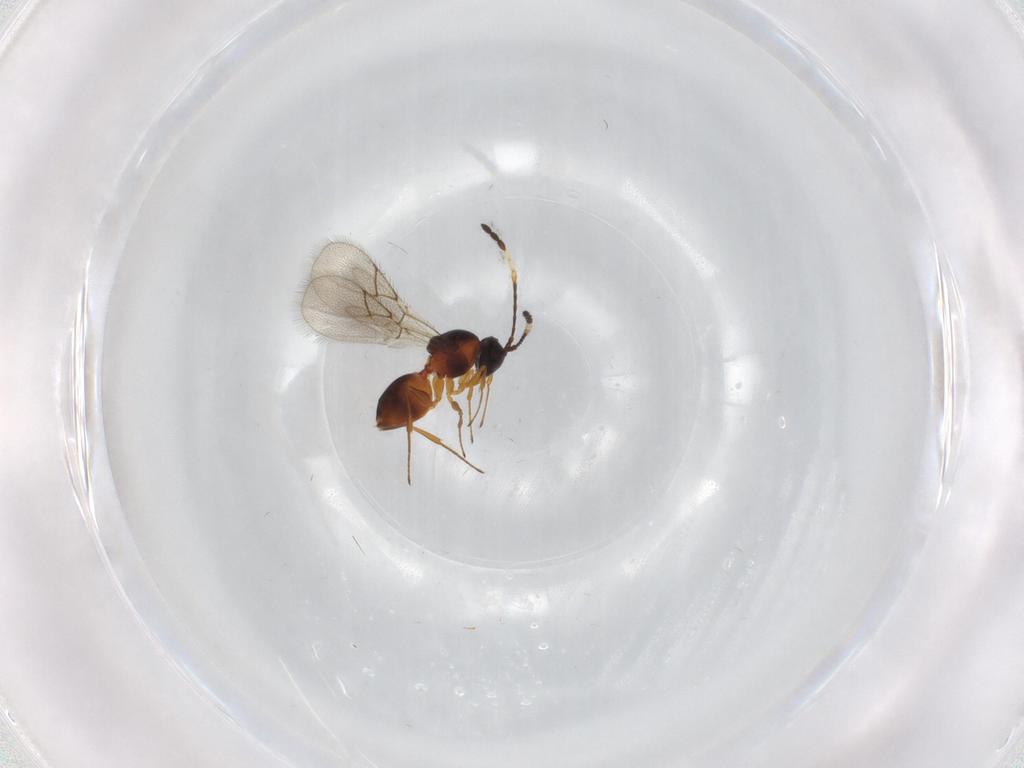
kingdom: Animalia
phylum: Arthropoda
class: Insecta
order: Hymenoptera
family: Figitidae
